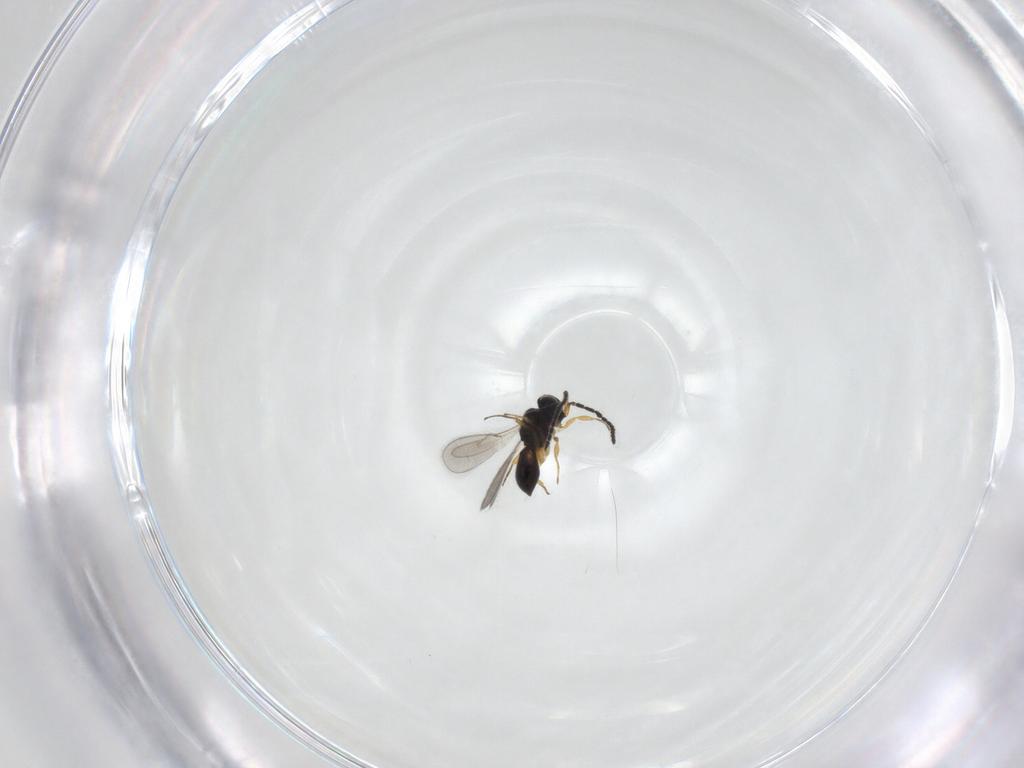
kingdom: Animalia
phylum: Arthropoda
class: Insecta
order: Hymenoptera
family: Scelionidae
